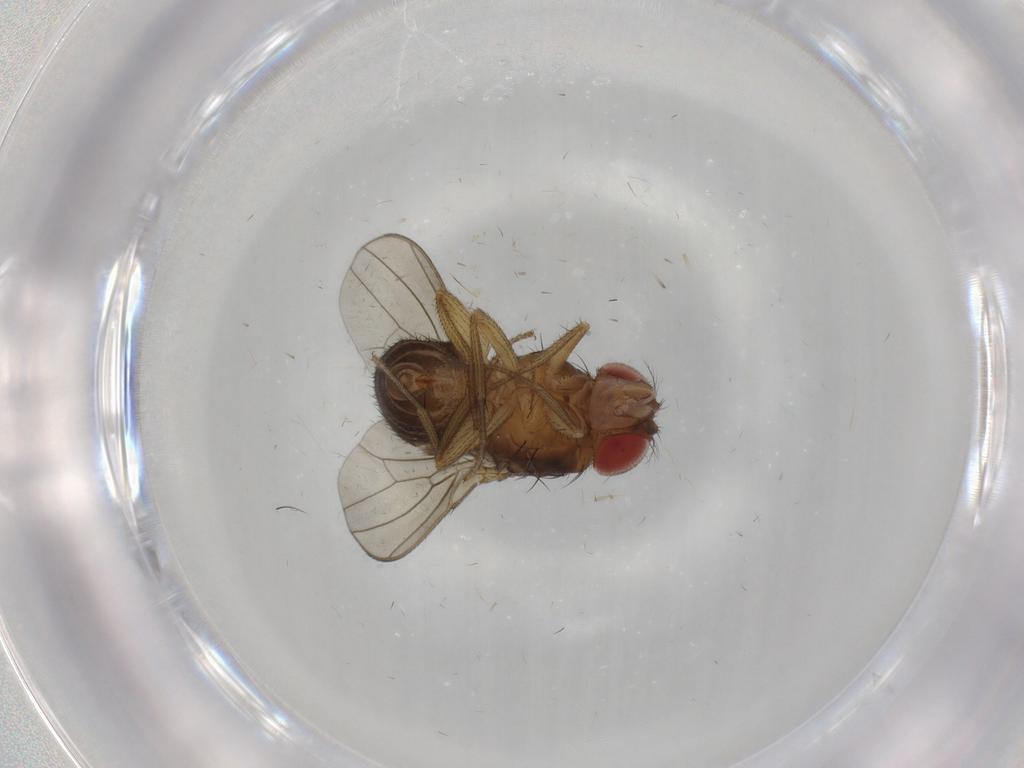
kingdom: Animalia
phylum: Arthropoda
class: Insecta
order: Diptera
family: Drosophilidae
